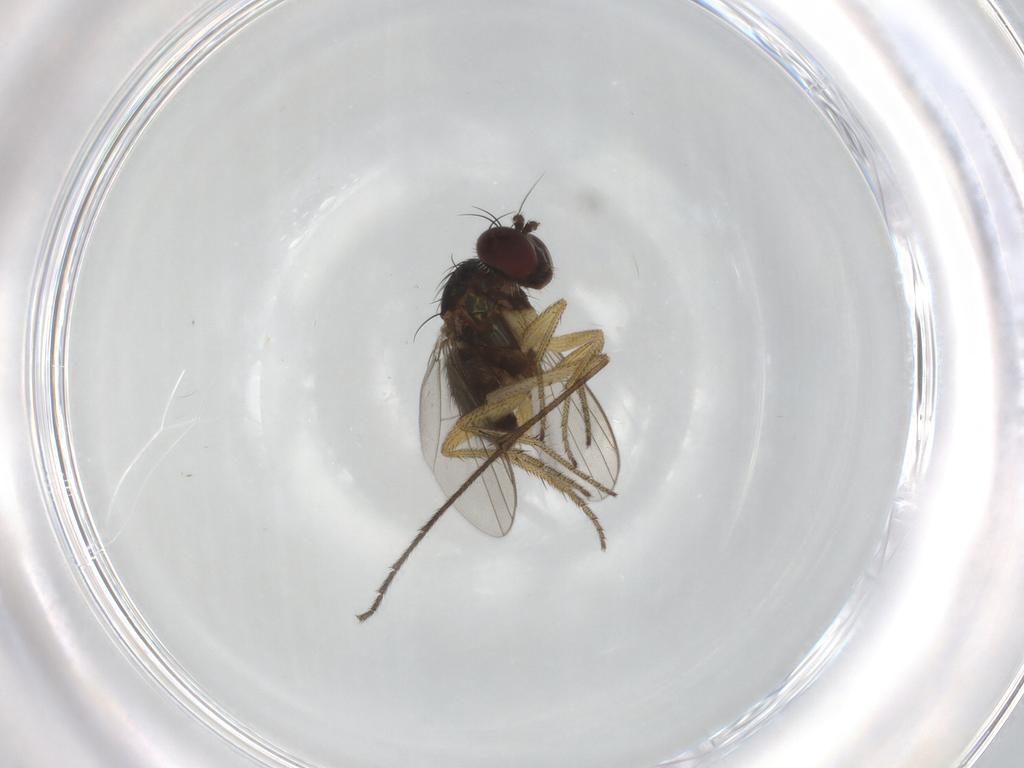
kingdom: Animalia
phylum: Arthropoda
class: Insecta
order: Diptera
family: Dolichopodidae
